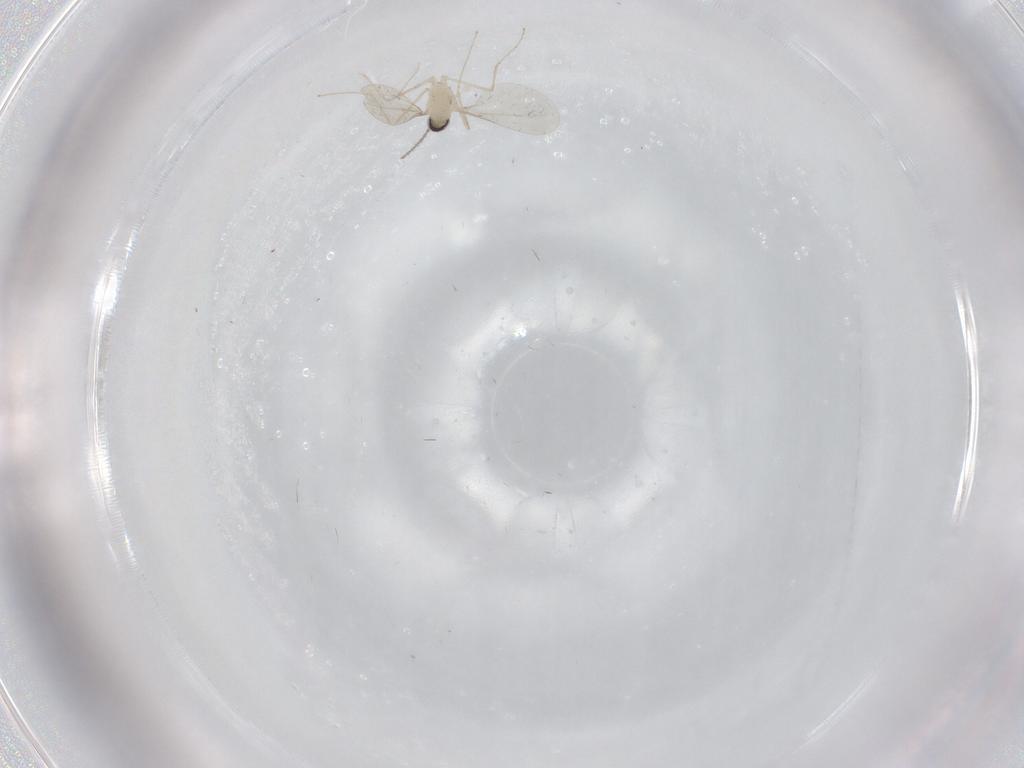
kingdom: Animalia
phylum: Arthropoda
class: Insecta
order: Diptera
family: Cecidomyiidae
